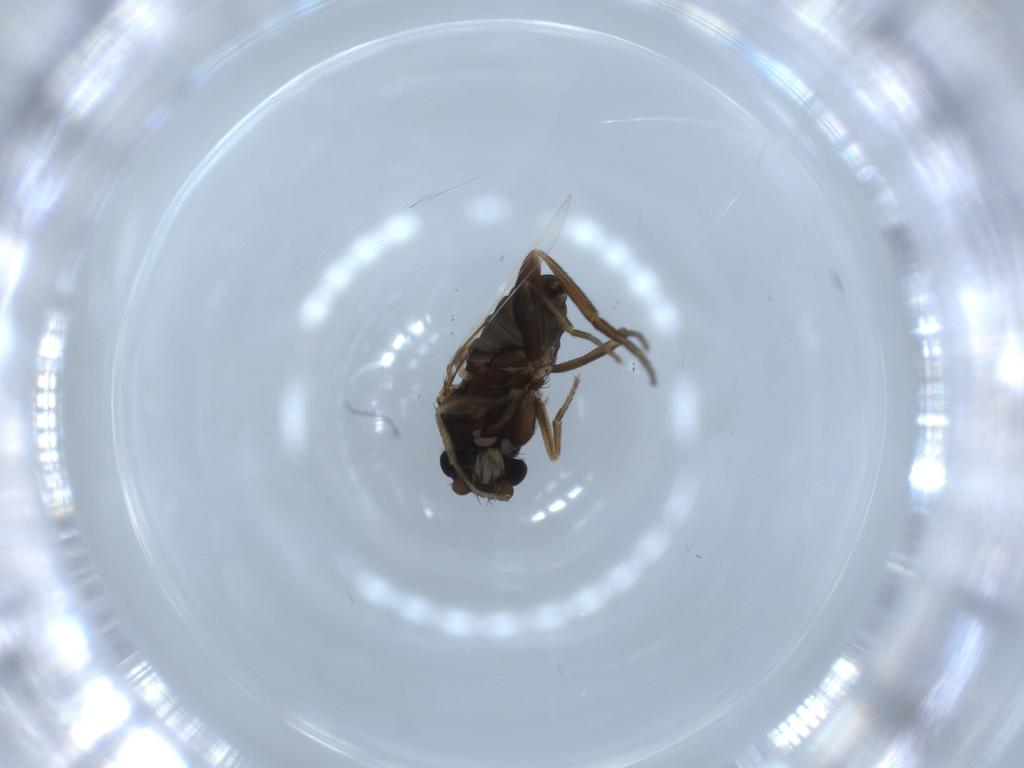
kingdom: Animalia
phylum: Arthropoda
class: Insecta
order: Diptera
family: Phoridae
